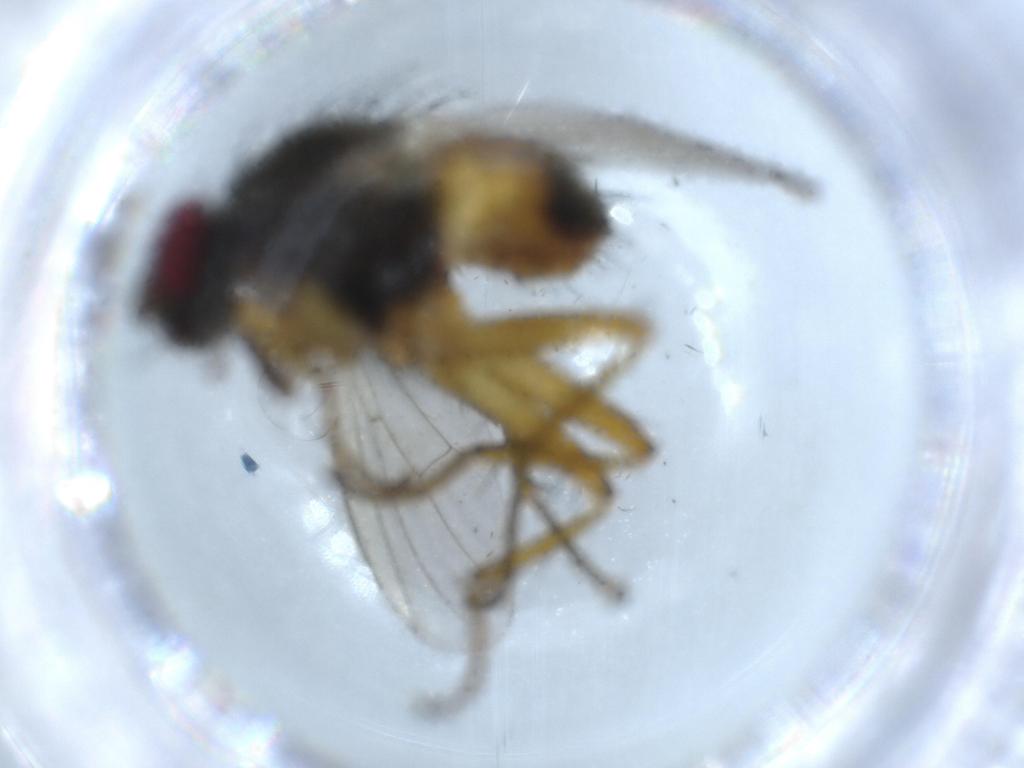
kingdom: Animalia
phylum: Arthropoda
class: Insecta
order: Diptera
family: Muscidae
